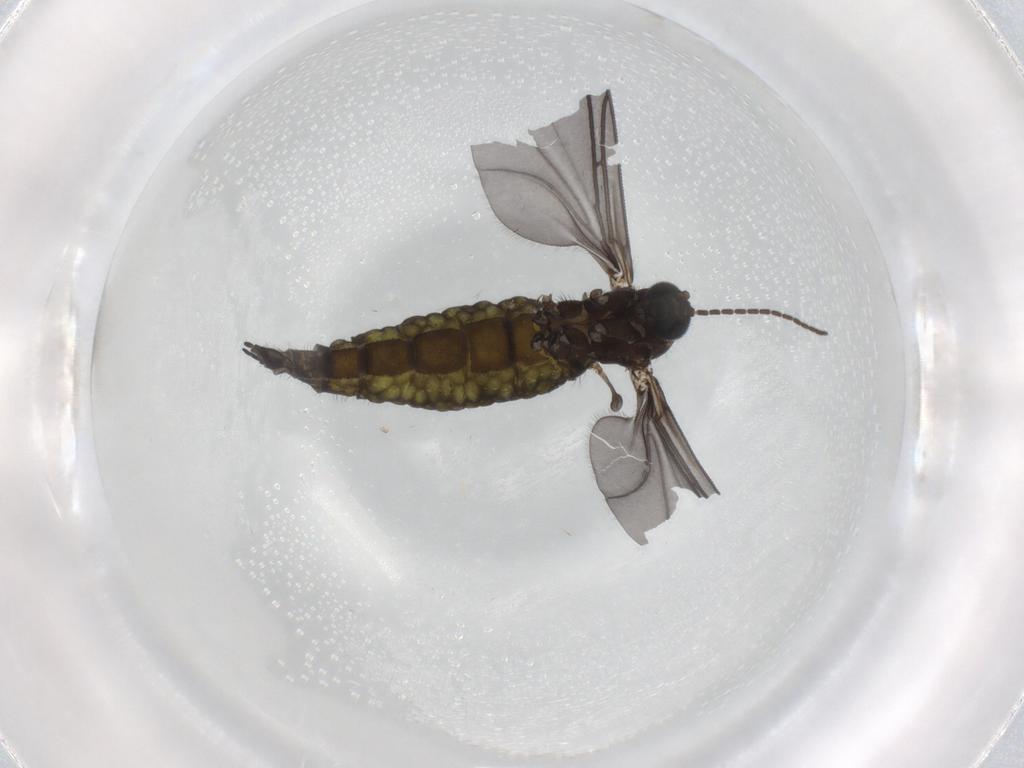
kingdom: Animalia
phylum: Arthropoda
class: Insecta
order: Diptera
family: Sciaridae
